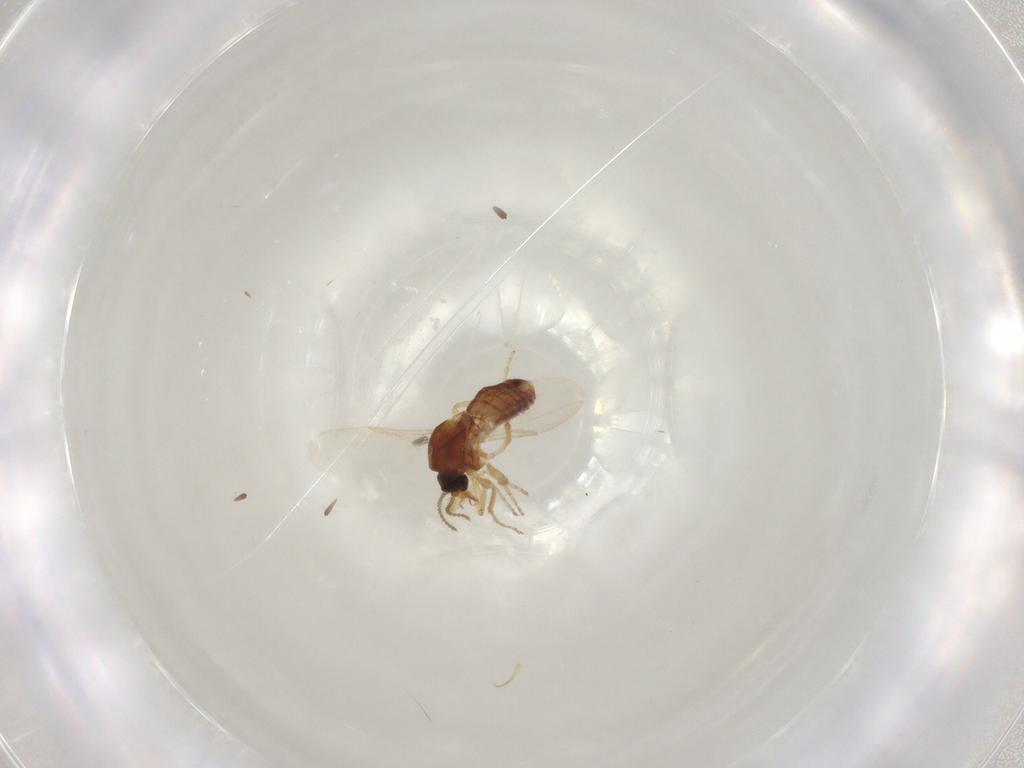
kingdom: Animalia
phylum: Arthropoda
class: Insecta
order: Diptera
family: Ceratopogonidae
